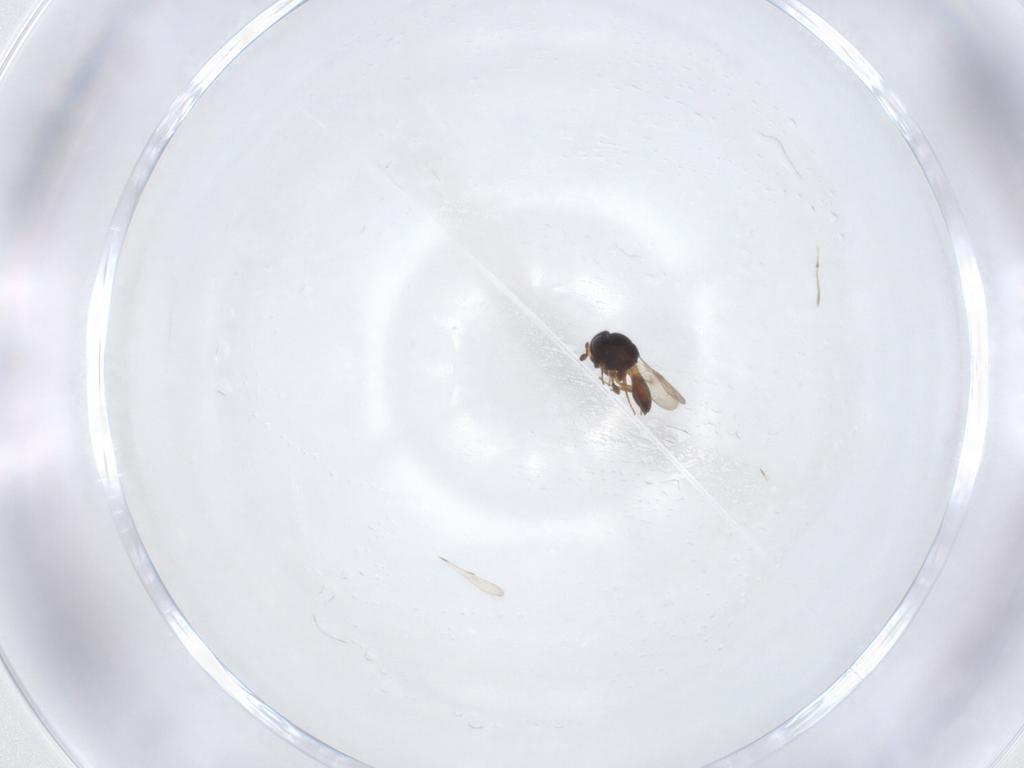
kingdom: Animalia
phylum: Arthropoda
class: Insecta
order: Hymenoptera
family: Scelionidae
